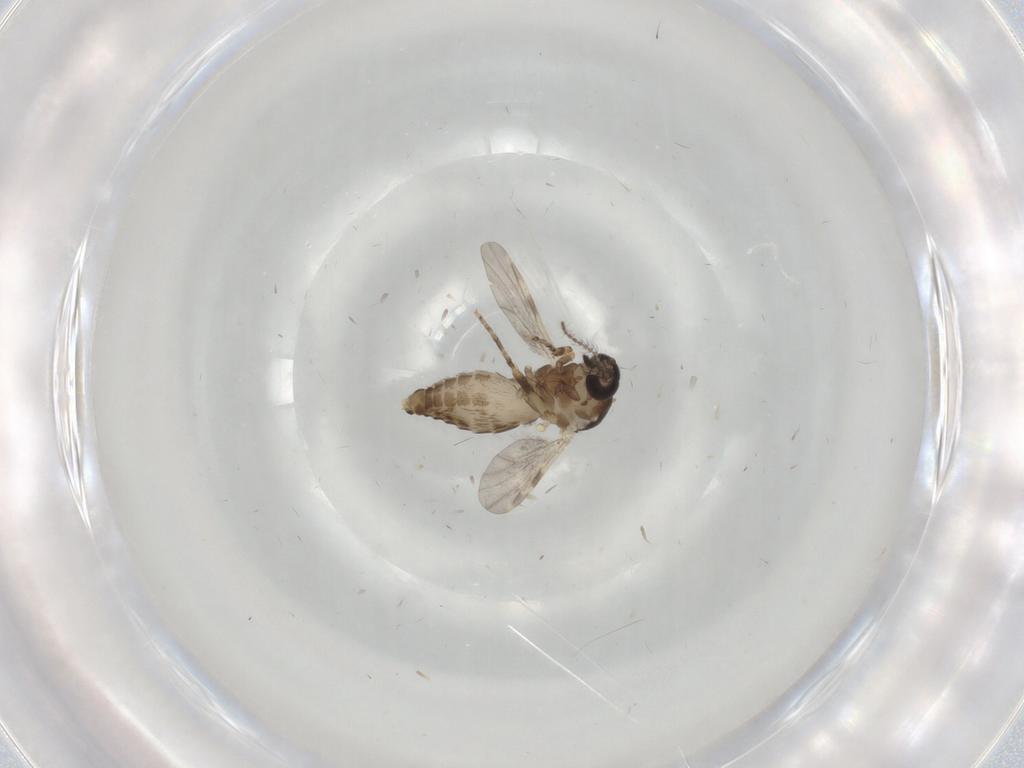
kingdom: Animalia
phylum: Arthropoda
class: Insecta
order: Diptera
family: Ceratopogonidae
